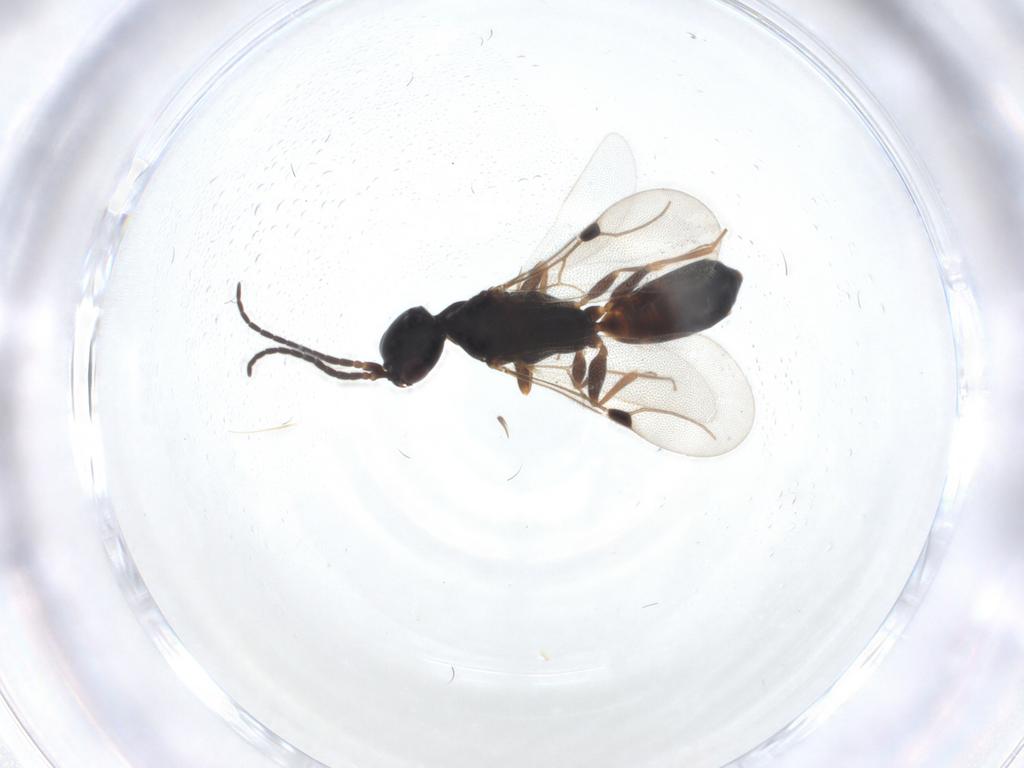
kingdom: Animalia
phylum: Arthropoda
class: Insecta
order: Hymenoptera
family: Bethylidae
